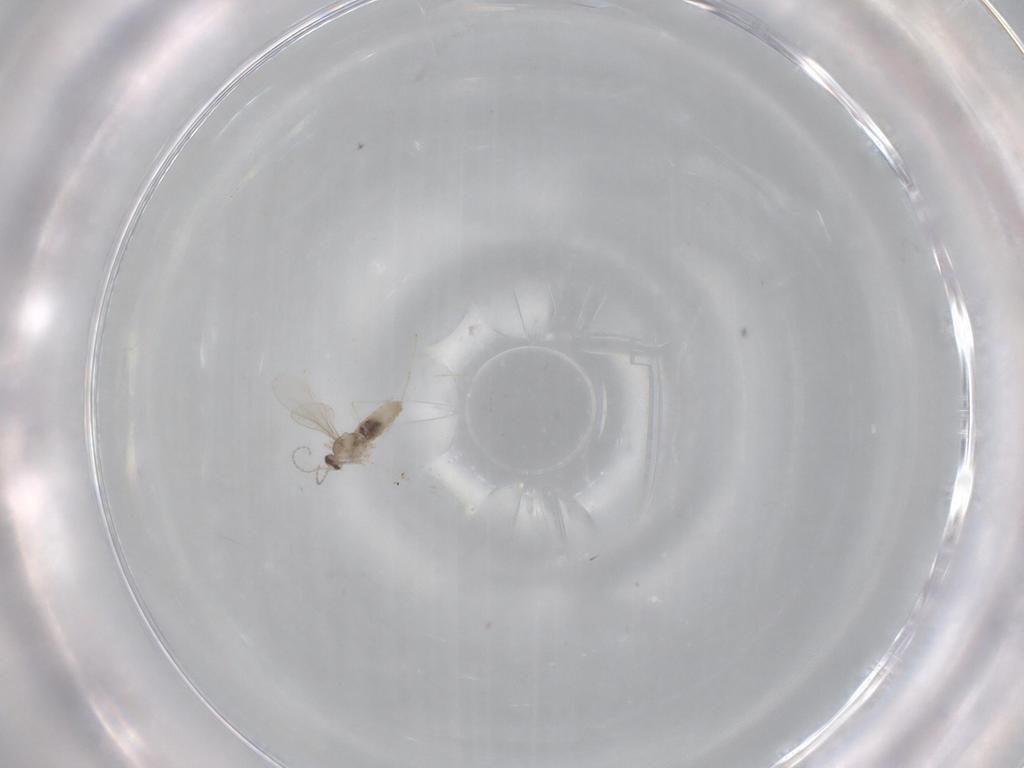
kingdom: Animalia
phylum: Arthropoda
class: Insecta
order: Diptera
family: Cecidomyiidae
